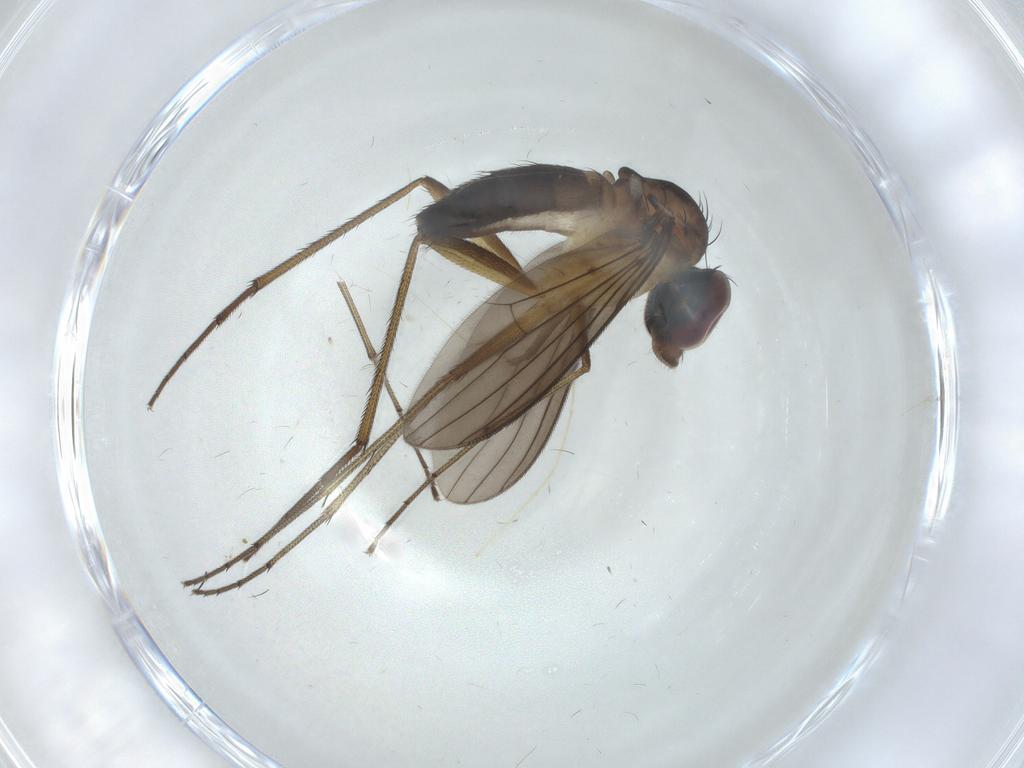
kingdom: Animalia
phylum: Arthropoda
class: Insecta
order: Diptera
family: Dolichopodidae
